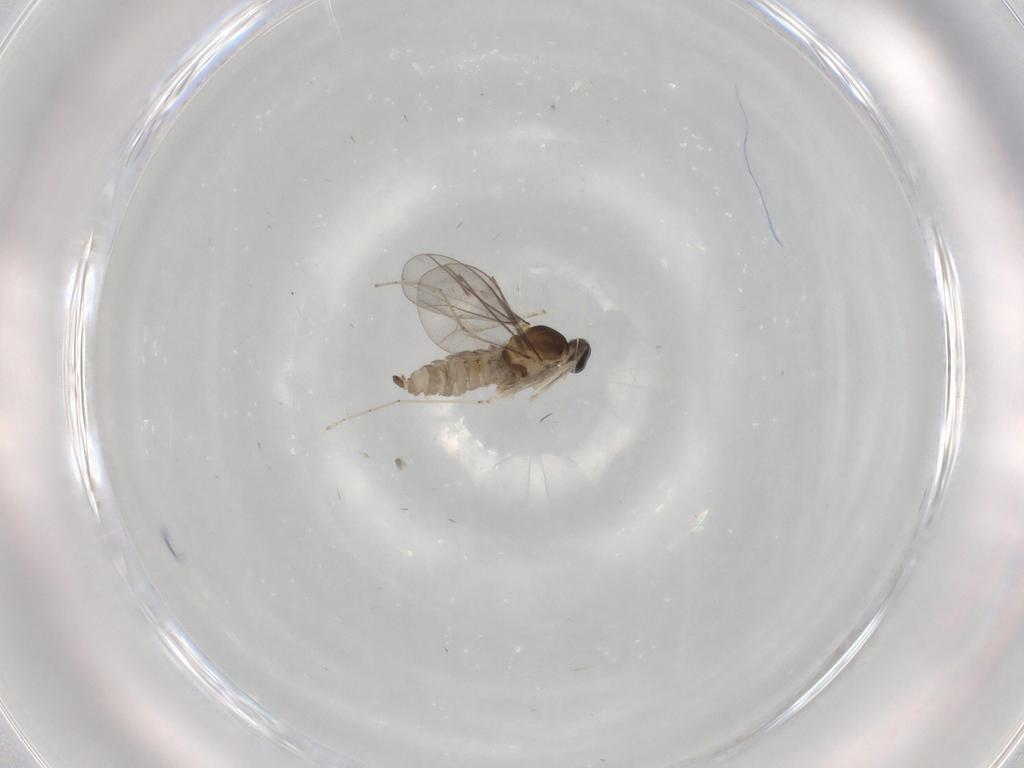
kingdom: Animalia
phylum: Arthropoda
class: Insecta
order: Diptera
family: Cecidomyiidae
